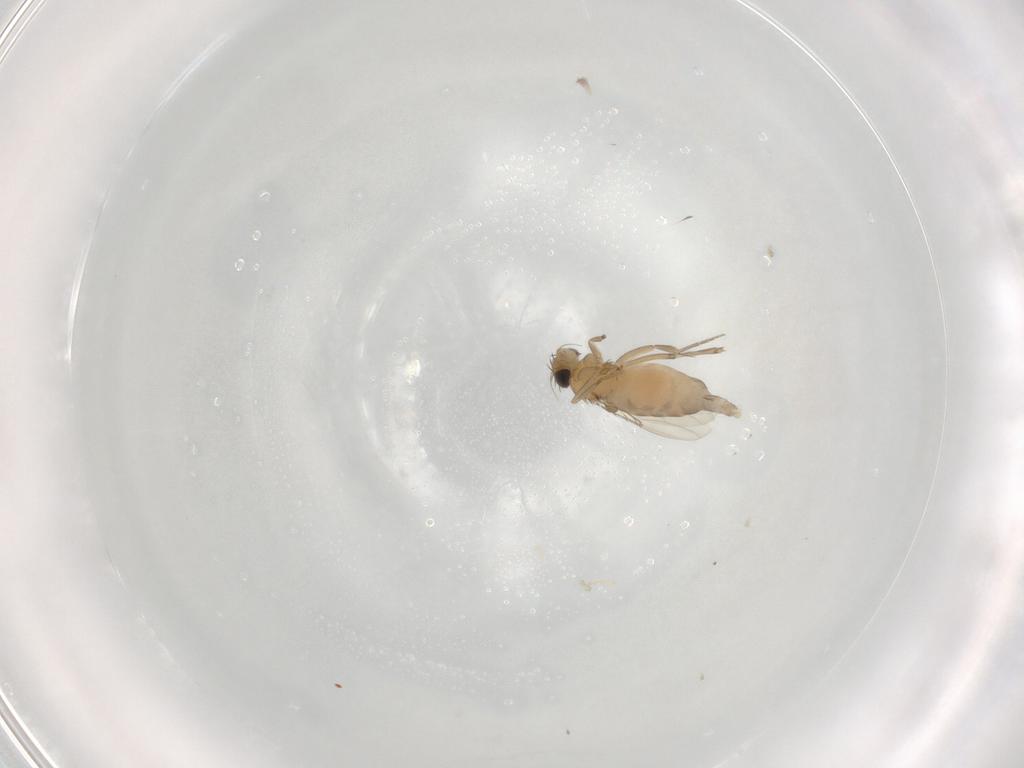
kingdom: Animalia
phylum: Arthropoda
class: Insecta
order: Diptera
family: Phoridae
